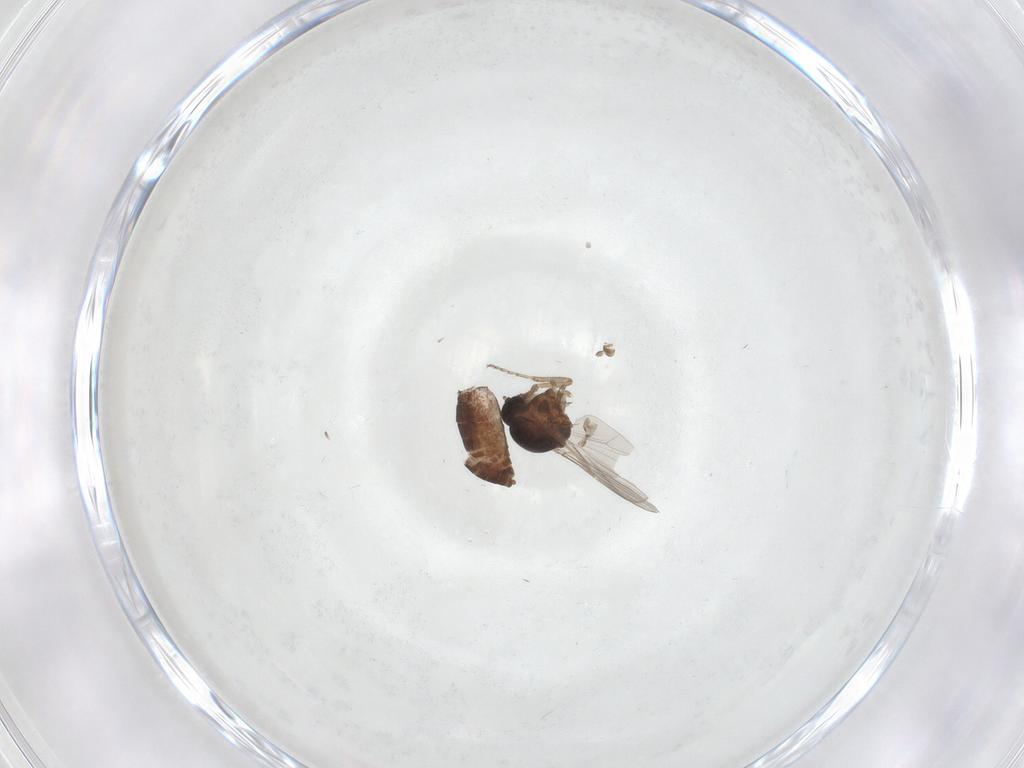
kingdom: Animalia
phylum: Arthropoda
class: Insecta
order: Diptera
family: Ceratopogonidae
